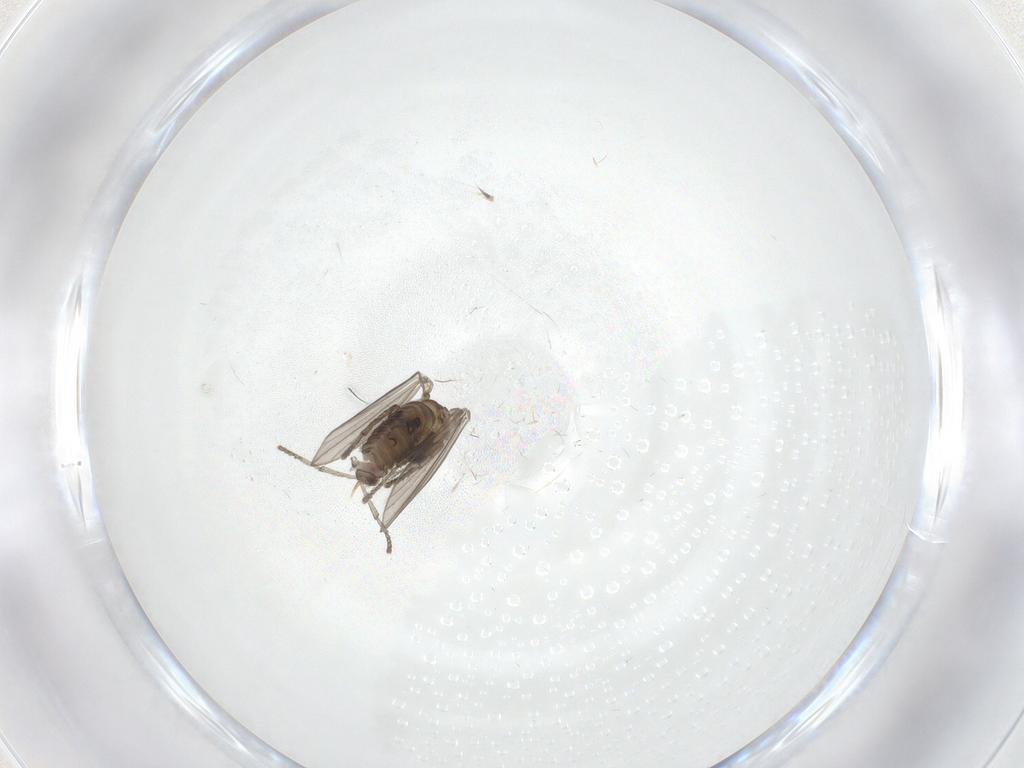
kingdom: Animalia
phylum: Arthropoda
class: Insecta
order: Diptera
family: Psychodidae
